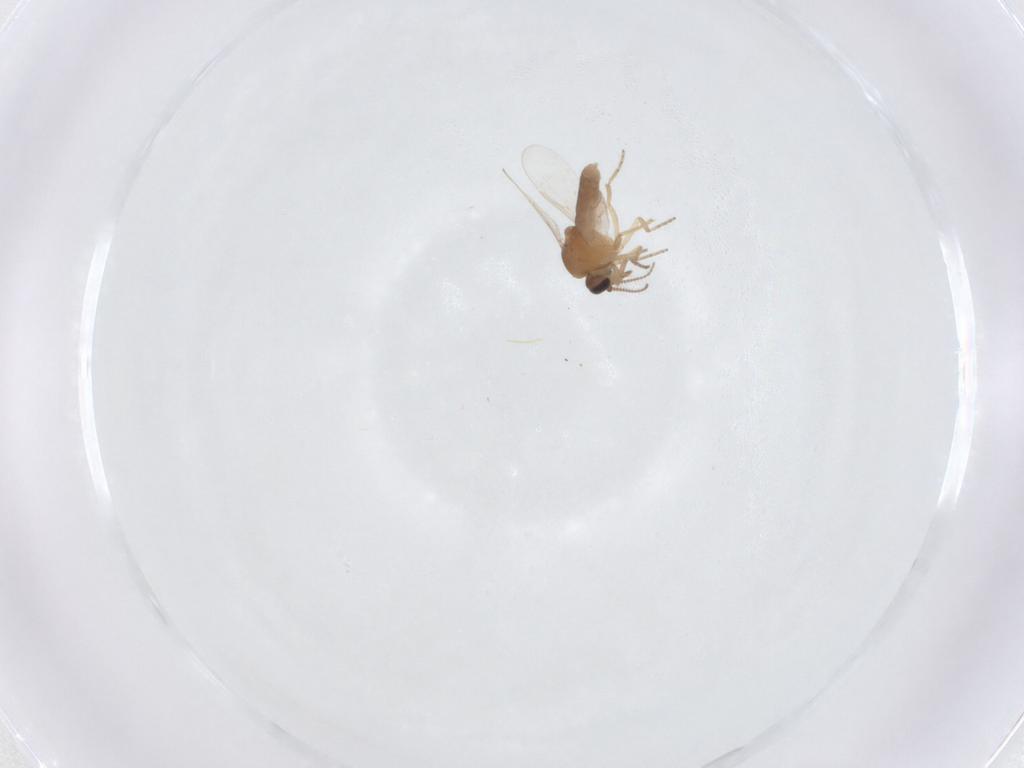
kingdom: Animalia
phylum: Arthropoda
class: Insecta
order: Diptera
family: Ceratopogonidae
